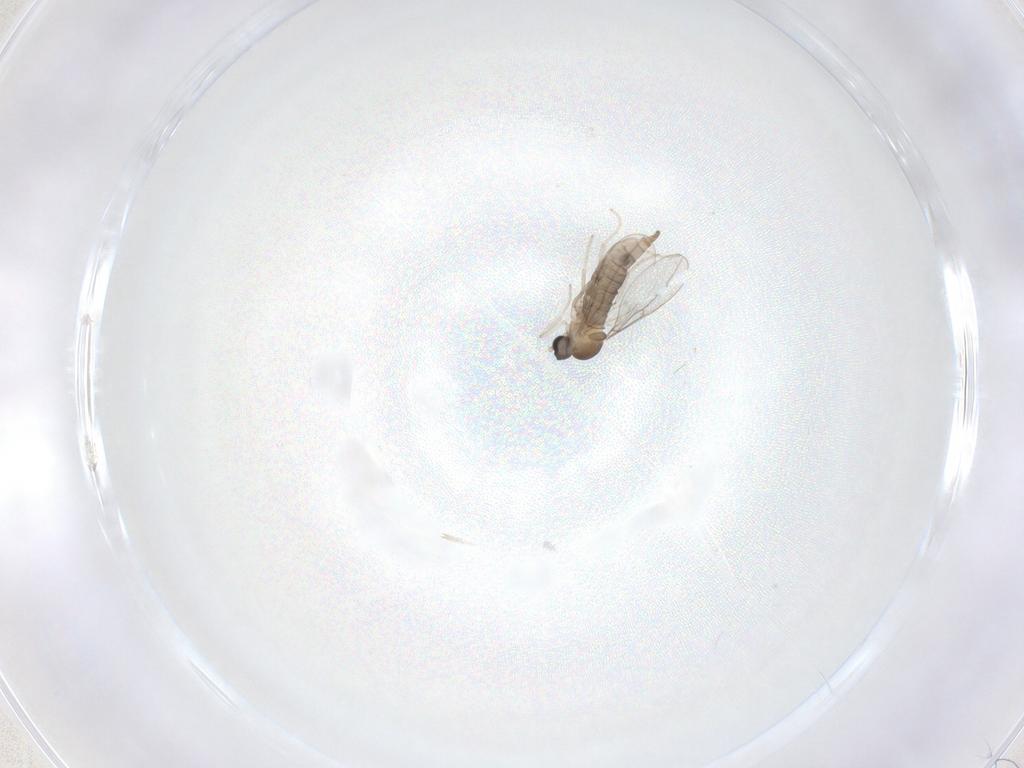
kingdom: Animalia
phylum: Arthropoda
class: Insecta
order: Diptera
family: Cecidomyiidae
